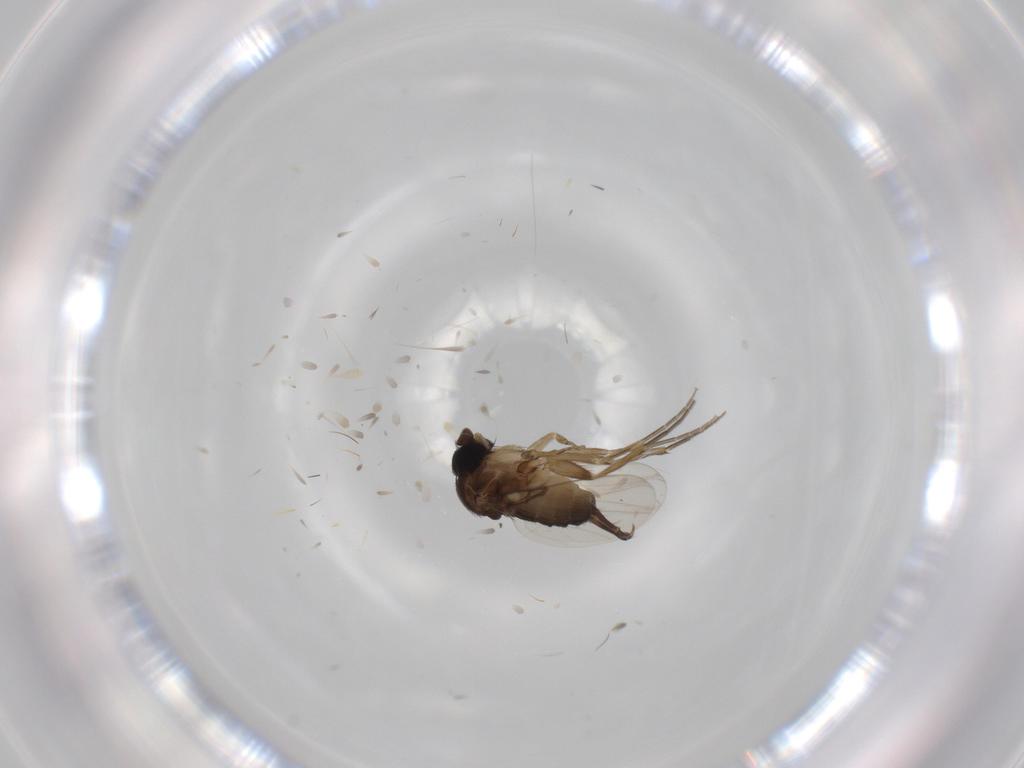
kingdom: Animalia
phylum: Arthropoda
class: Insecta
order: Diptera
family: Phoridae
